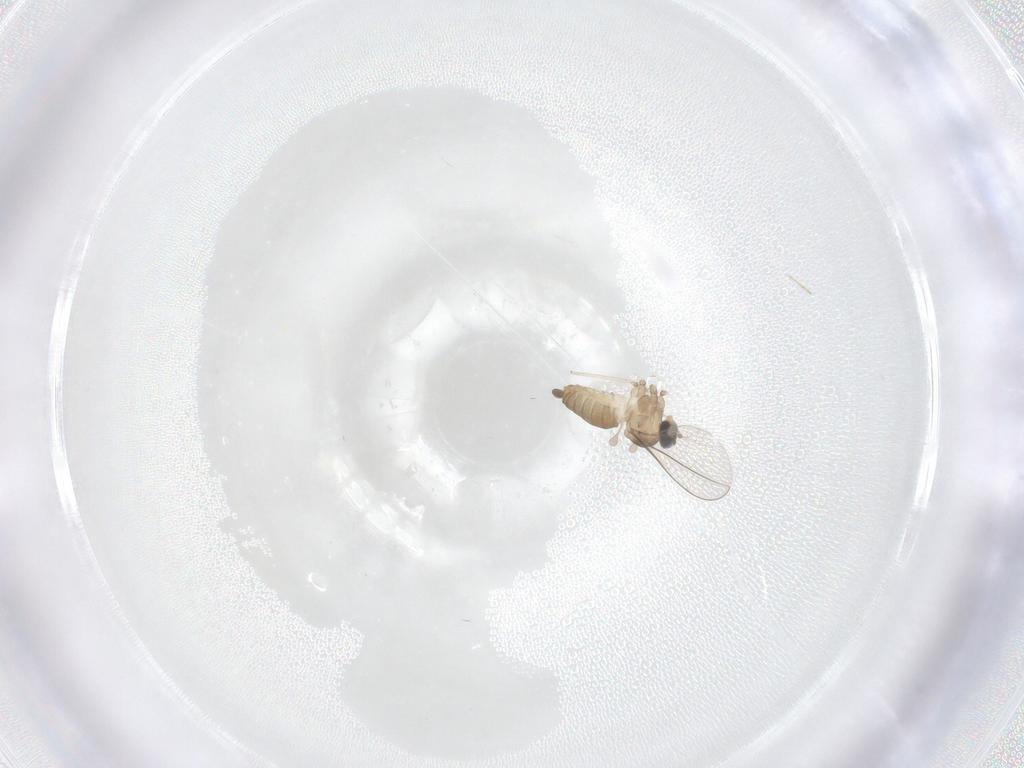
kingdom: Animalia
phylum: Arthropoda
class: Insecta
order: Diptera
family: Cecidomyiidae
